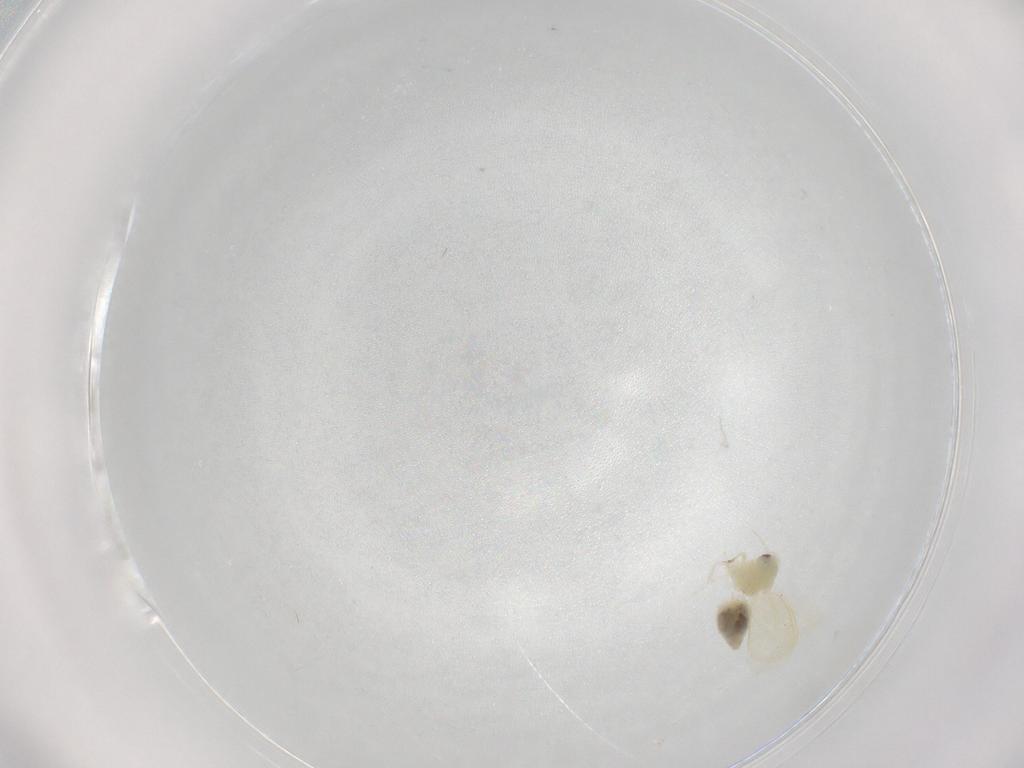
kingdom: Animalia
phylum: Arthropoda
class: Insecta
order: Hemiptera
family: Aleyrodidae
